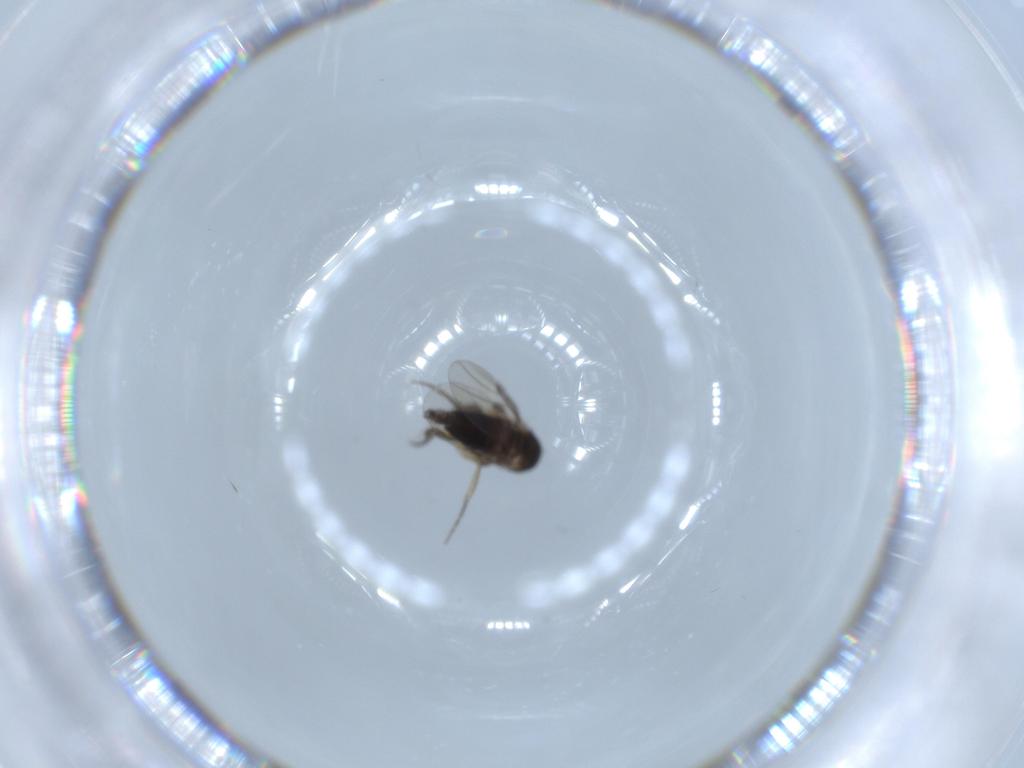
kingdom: Animalia
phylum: Arthropoda
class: Insecta
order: Diptera
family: Phoridae
